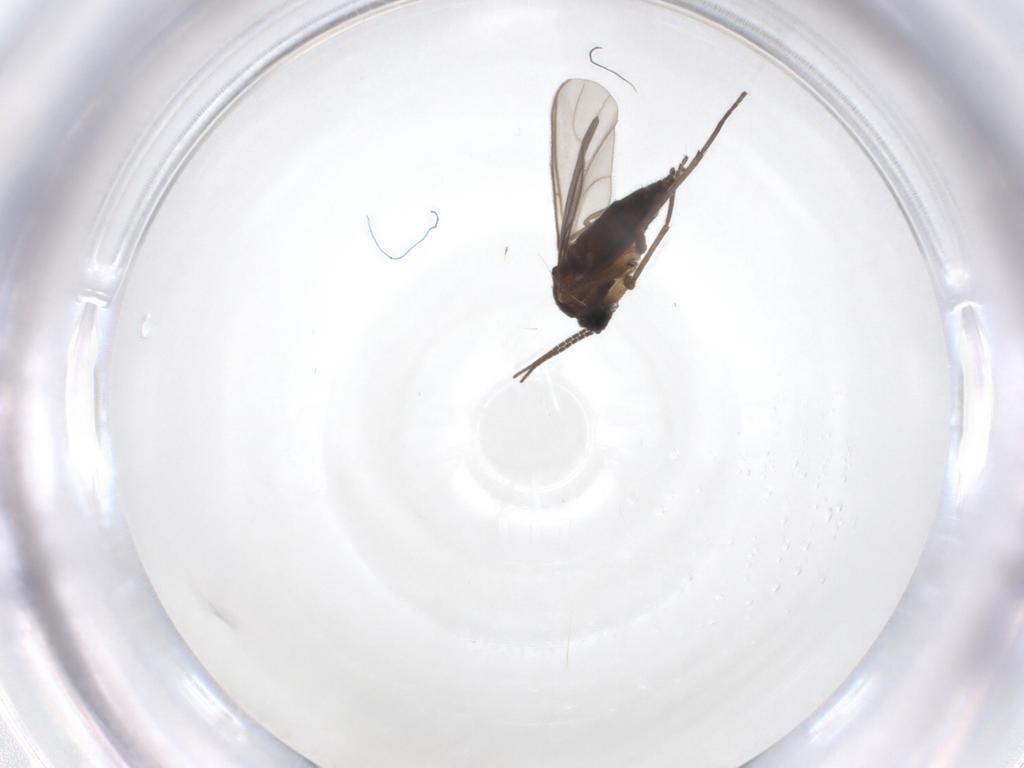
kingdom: Animalia
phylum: Arthropoda
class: Insecta
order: Diptera
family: Sciaridae
